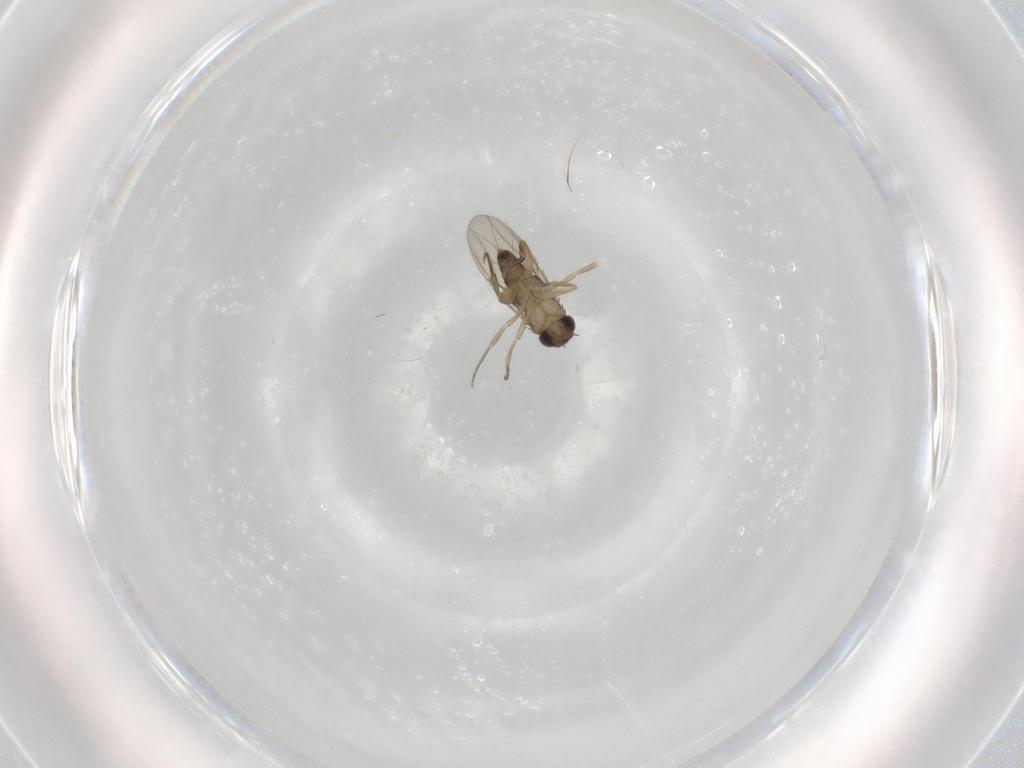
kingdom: Animalia
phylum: Arthropoda
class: Insecta
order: Diptera
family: Phoridae
